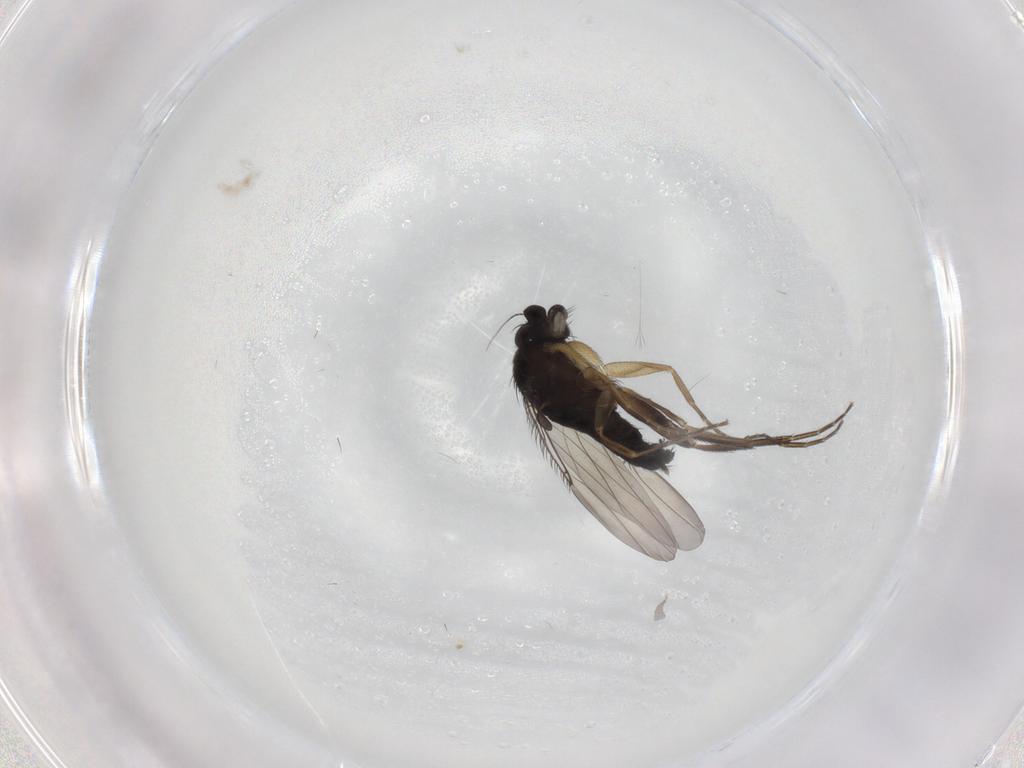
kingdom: Animalia
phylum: Arthropoda
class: Insecta
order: Diptera
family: Phoridae
